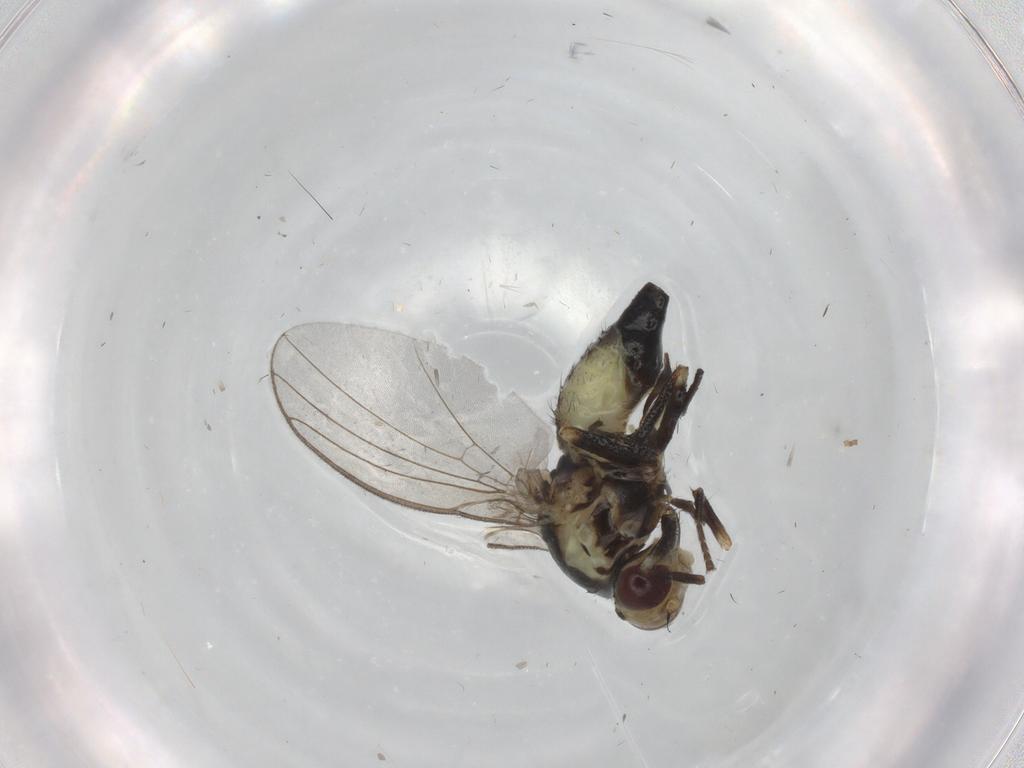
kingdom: Animalia
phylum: Arthropoda
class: Insecta
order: Diptera
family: Agromyzidae
